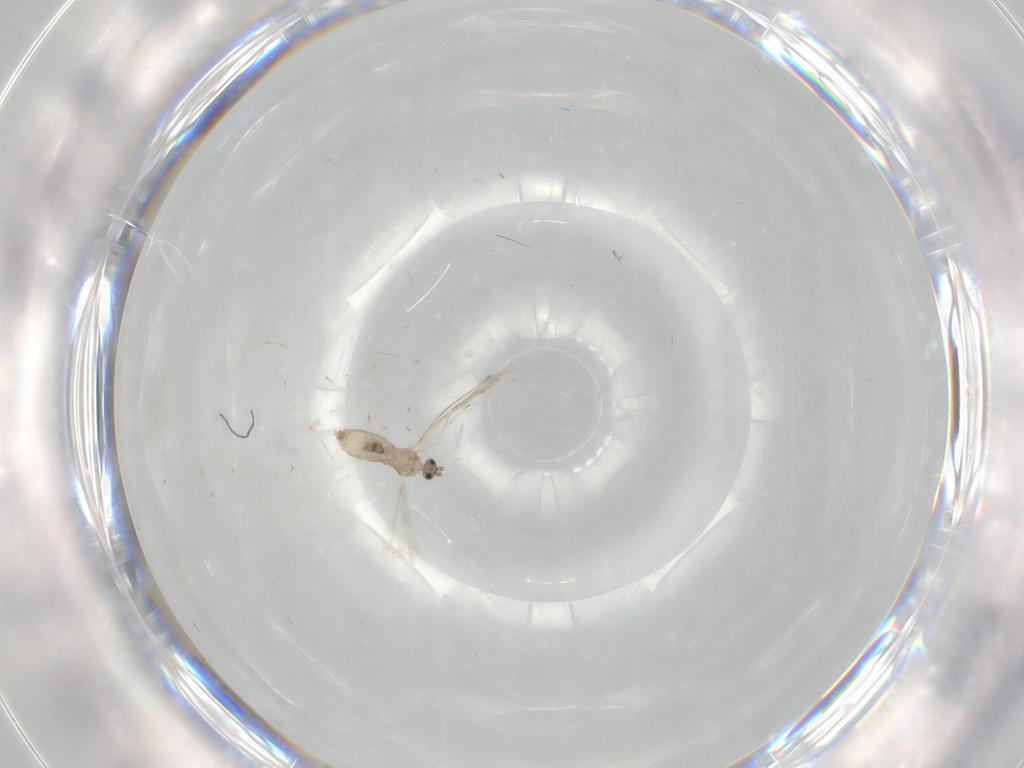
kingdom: Animalia
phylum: Arthropoda
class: Insecta
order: Diptera
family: Cecidomyiidae
